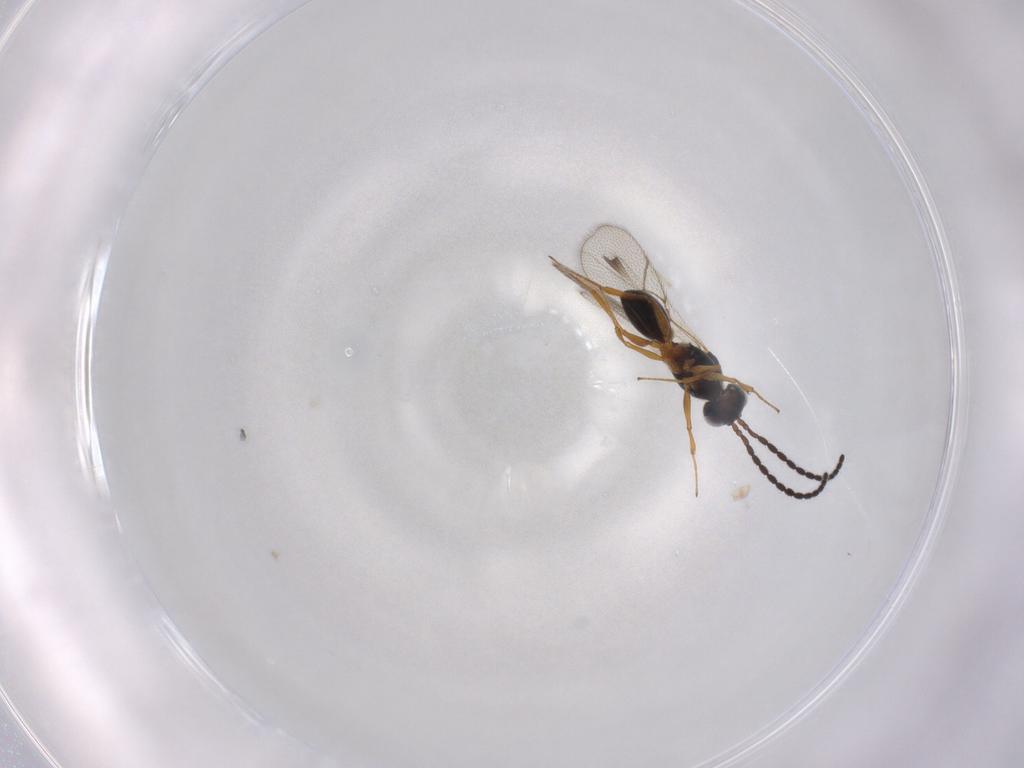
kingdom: Animalia
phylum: Arthropoda
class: Insecta
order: Hymenoptera
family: Figitidae
